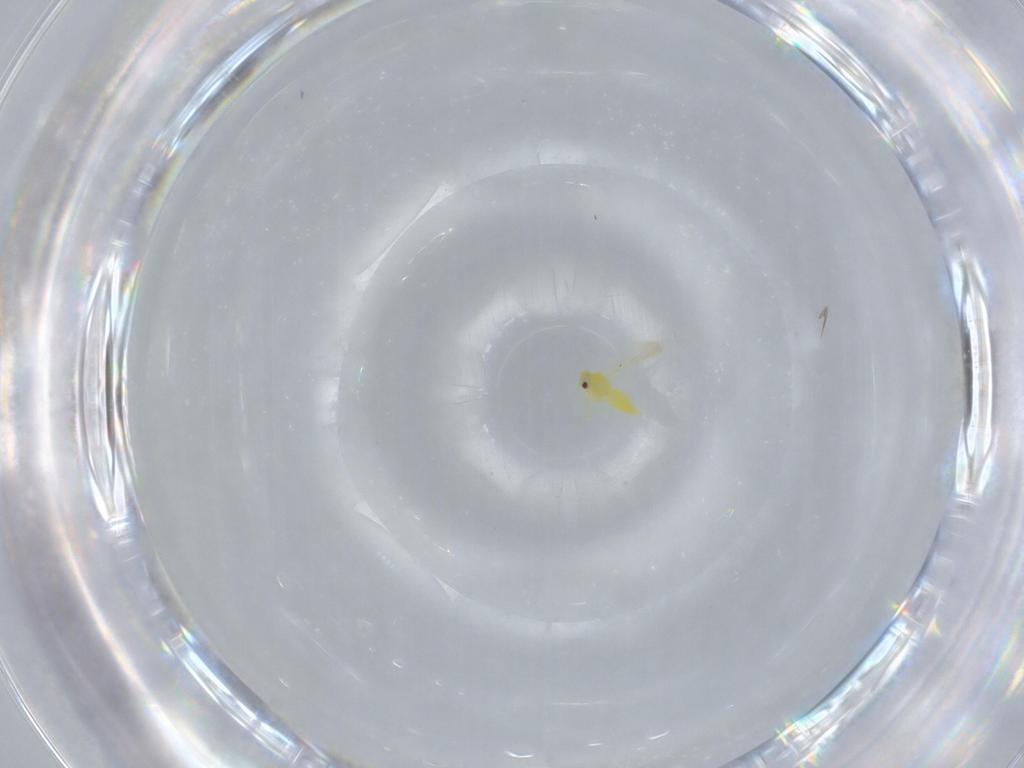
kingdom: Animalia
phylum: Arthropoda
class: Insecta
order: Hemiptera
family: Aleyrodidae
